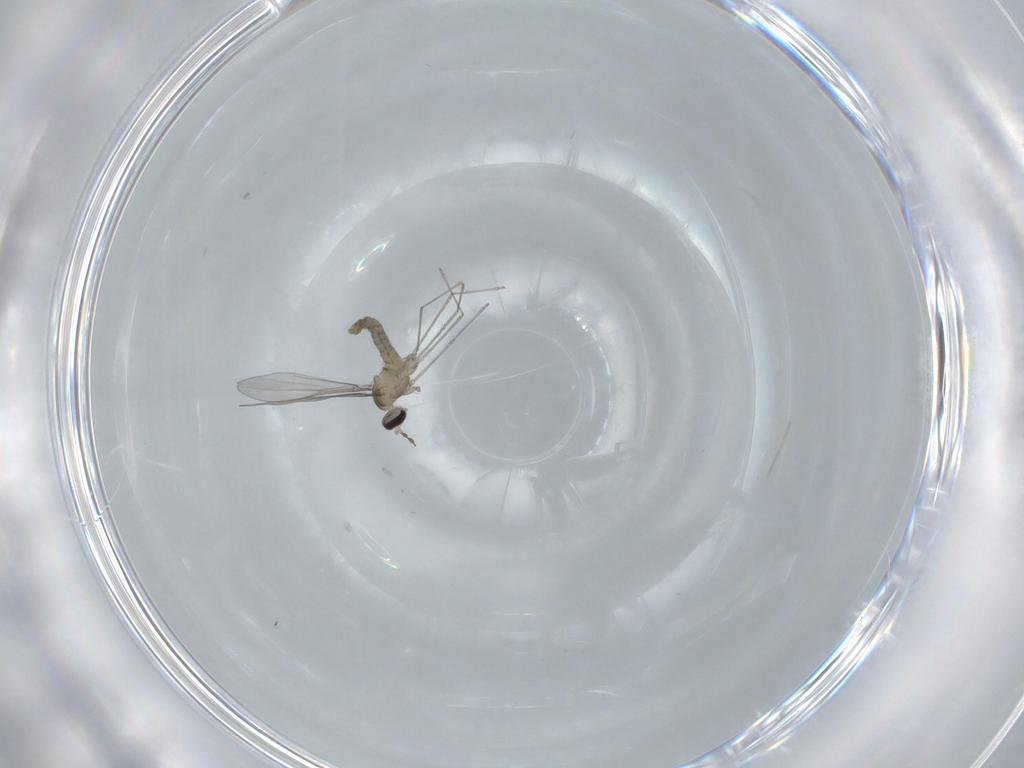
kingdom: Animalia
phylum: Arthropoda
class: Insecta
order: Diptera
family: Cecidomyiidae
